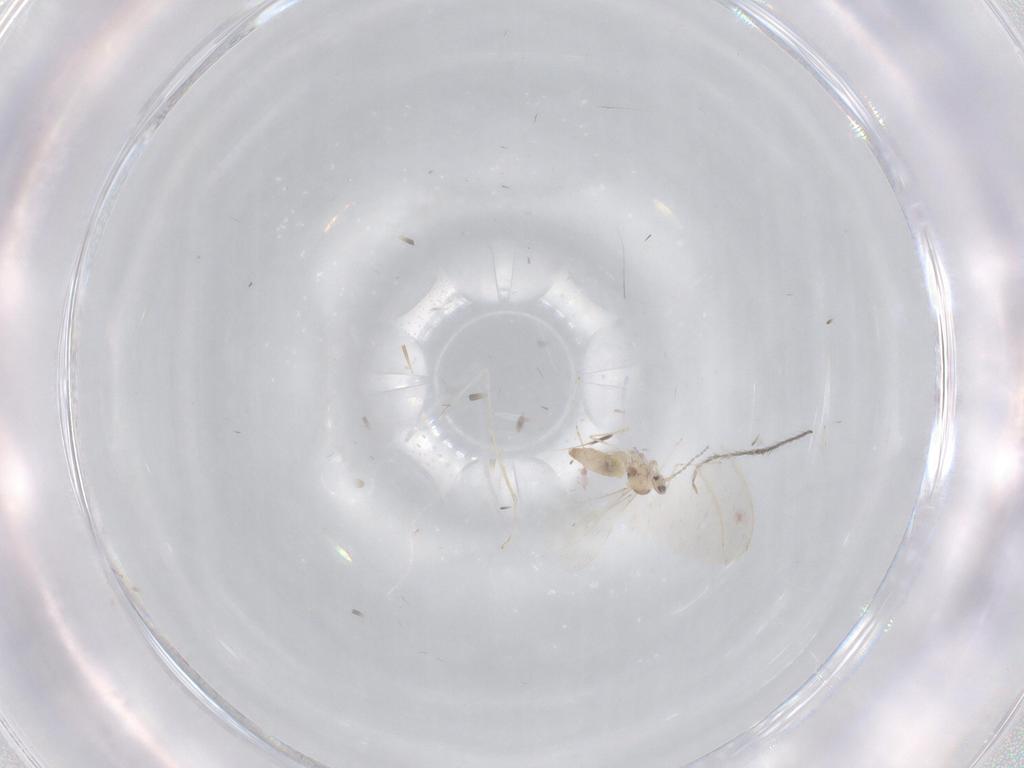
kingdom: Animalia
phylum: Arthropoda
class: Insecta
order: Diptera
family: Cecidomyiidae
